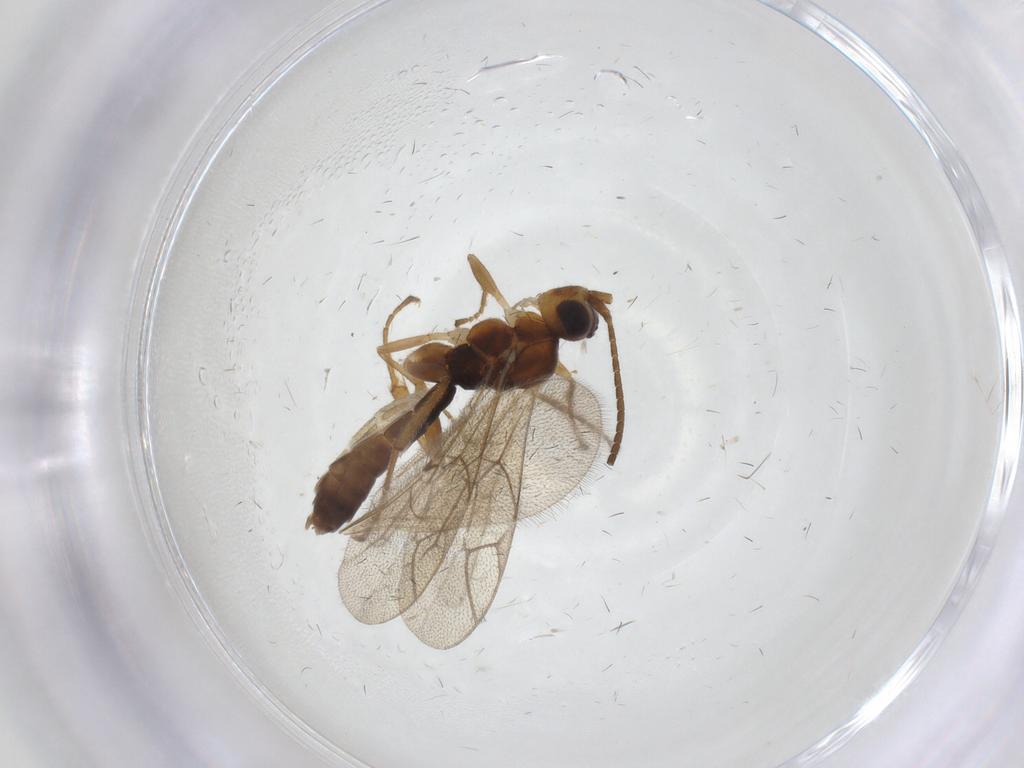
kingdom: Animalia
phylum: Arthropoda
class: Insecta
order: Hymenoptera
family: Ichneumonidae
